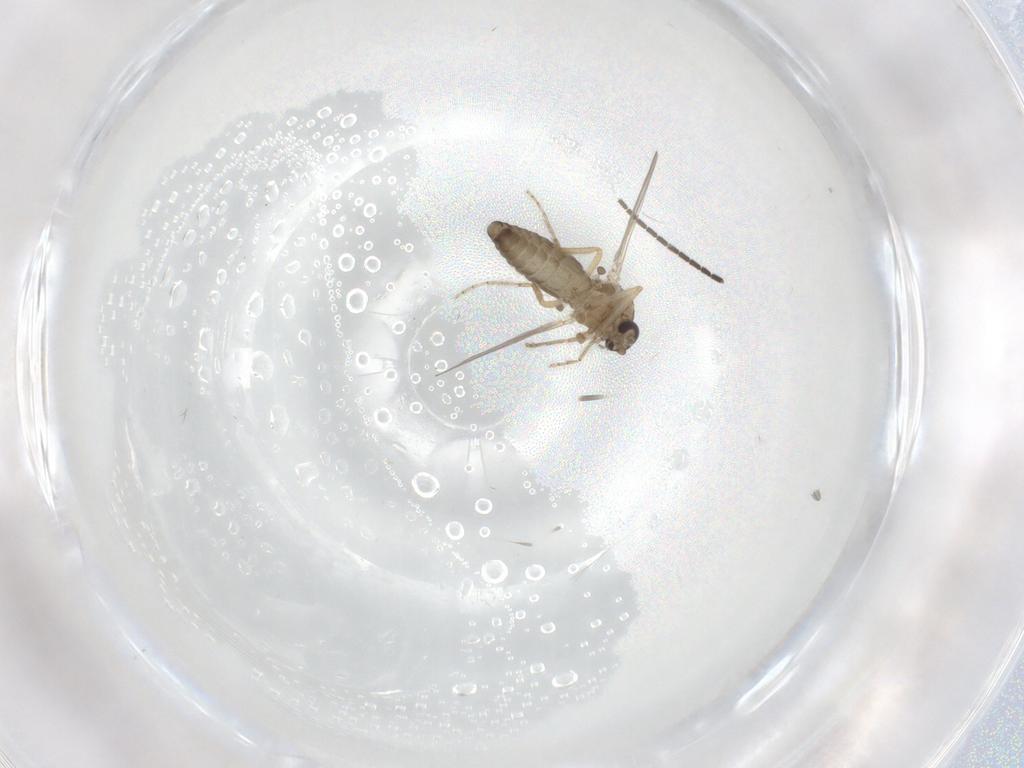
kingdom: Animalia
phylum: Arthropoda
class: Insecta
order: Diptera
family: Ceratopogonidae
